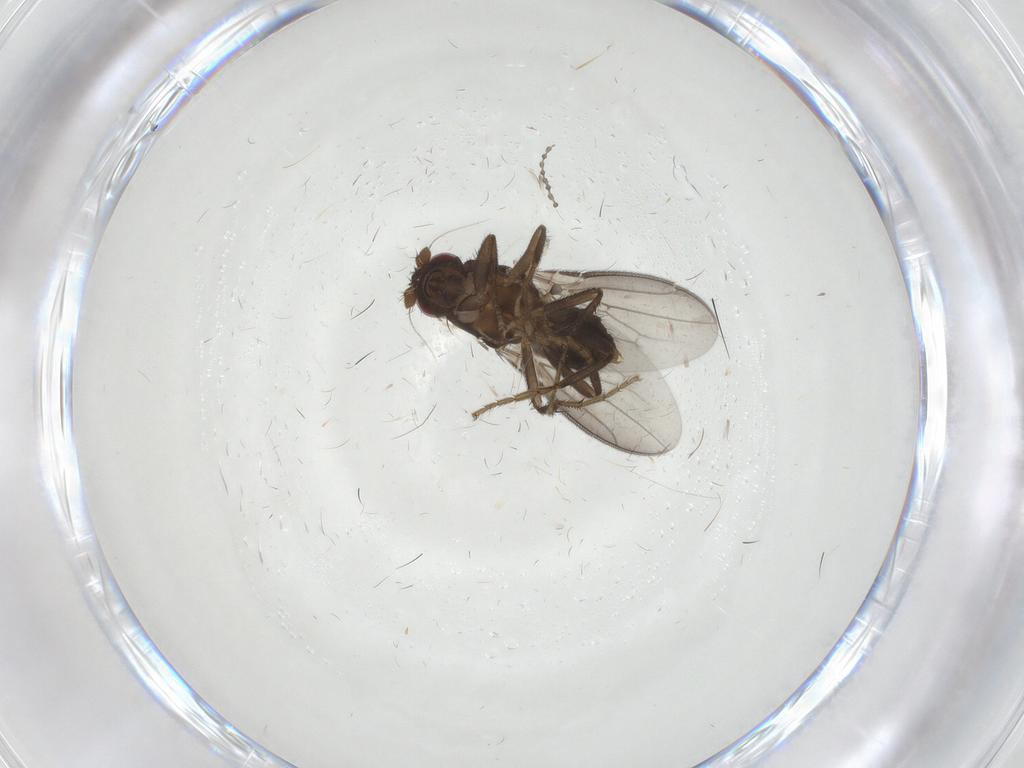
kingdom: Animalia
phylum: Arthropoda
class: Insecta
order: Diptera
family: Sphaeroceridae
